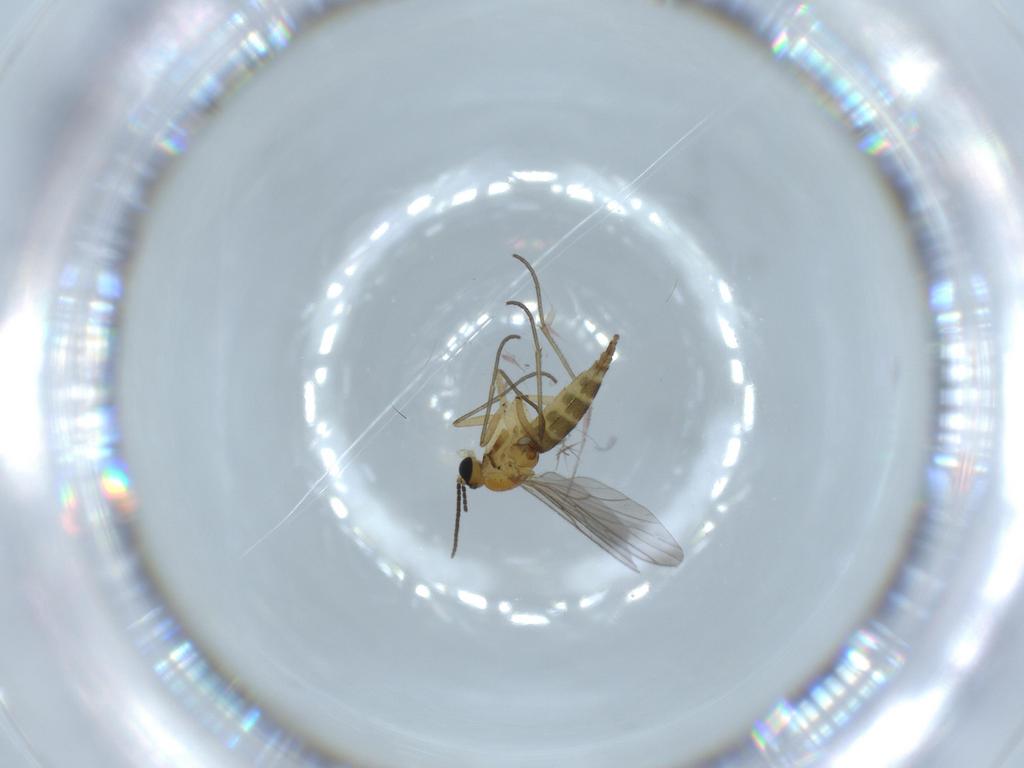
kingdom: Animalia
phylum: Arthropoda
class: Insecta
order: Diptera
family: Cecidomyiidae
